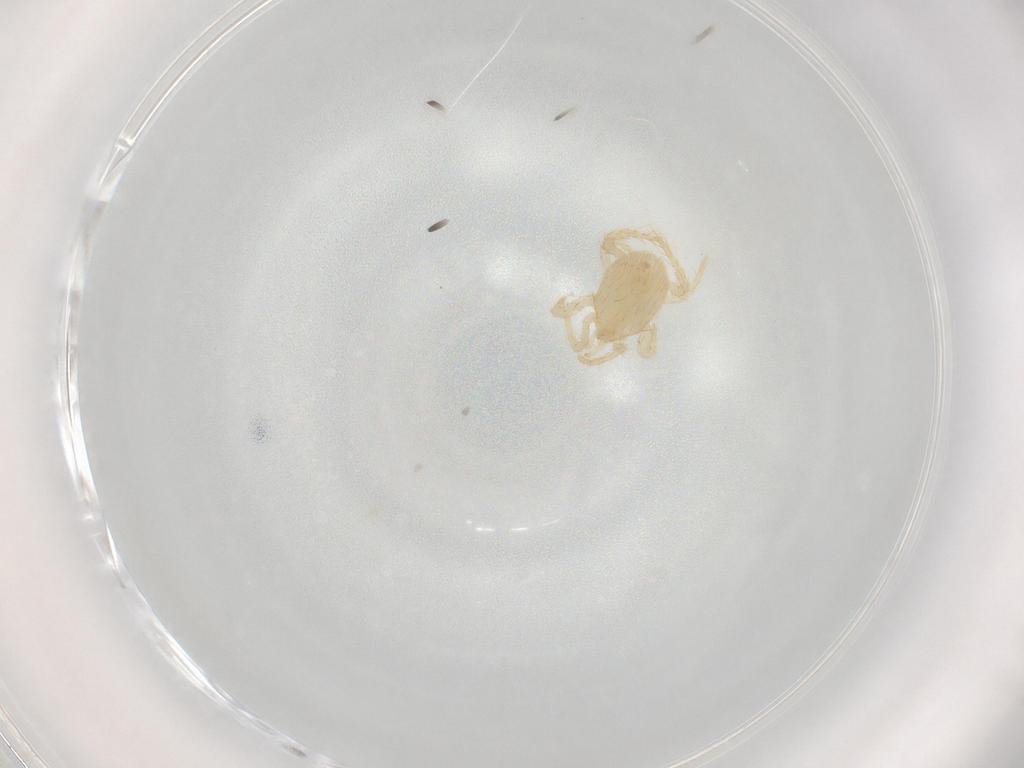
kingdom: Animalia
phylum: Arthropoda
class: Arachnida
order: Mesostigmata
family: Parasitidae
